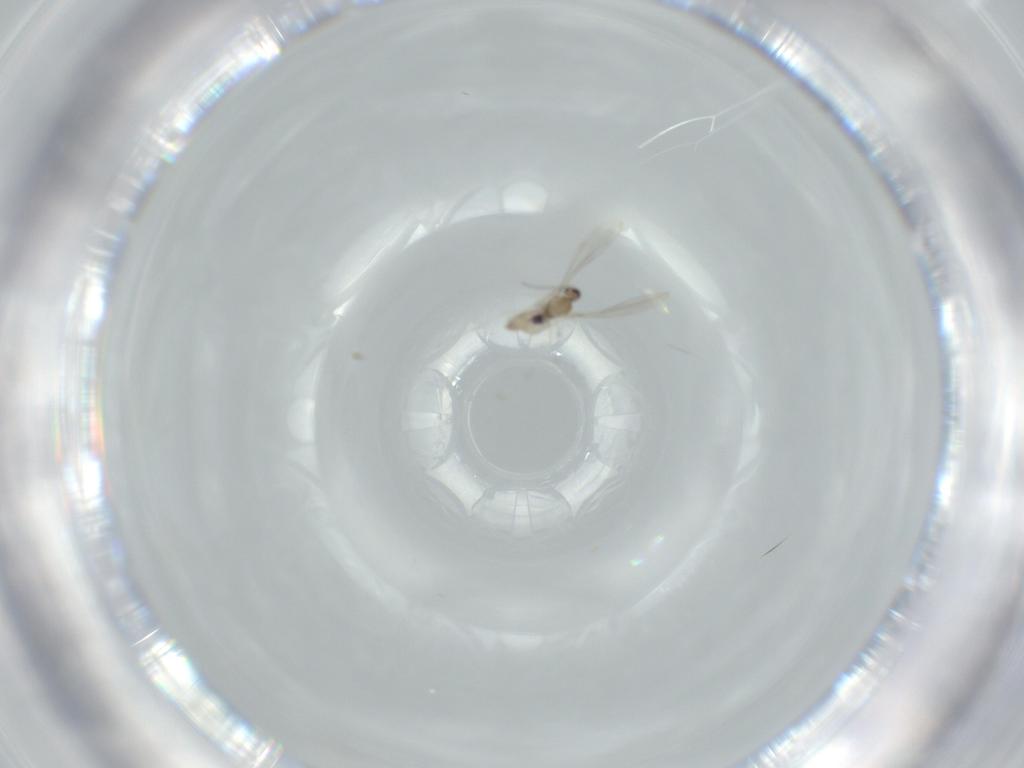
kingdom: Animalia
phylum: Arthropoda
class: Insecta
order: Diptera
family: Cecidomyiidae
